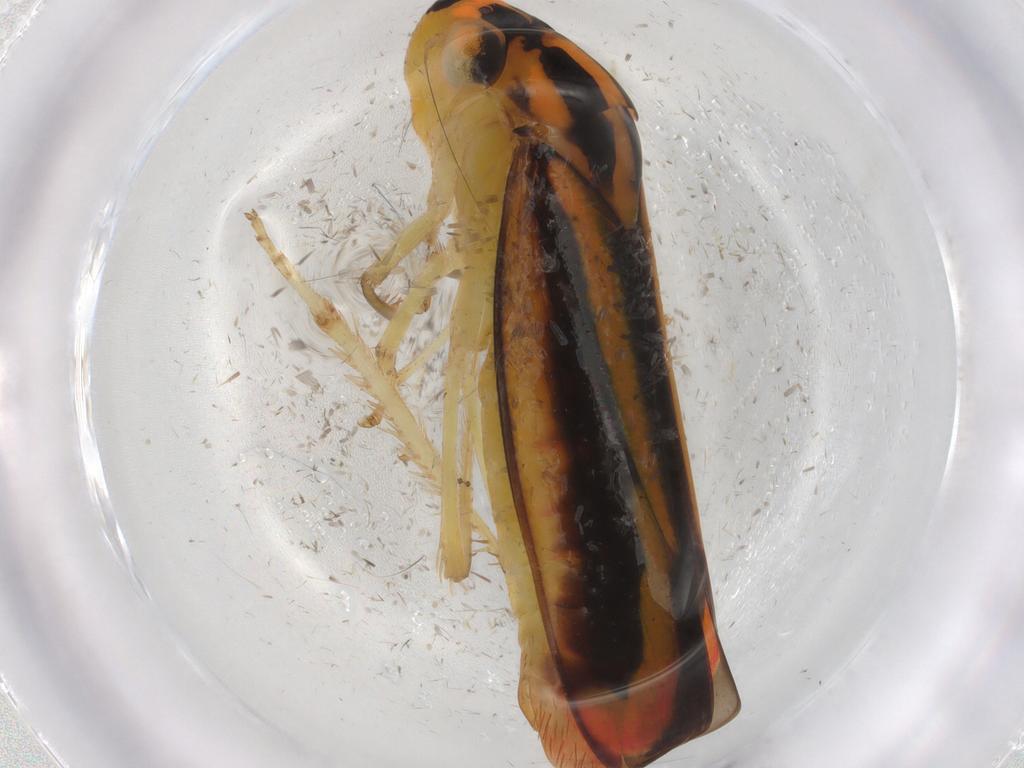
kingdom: Animalia
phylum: Arthropoda
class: Insecta
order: Hemiptera
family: Cicadellidae
